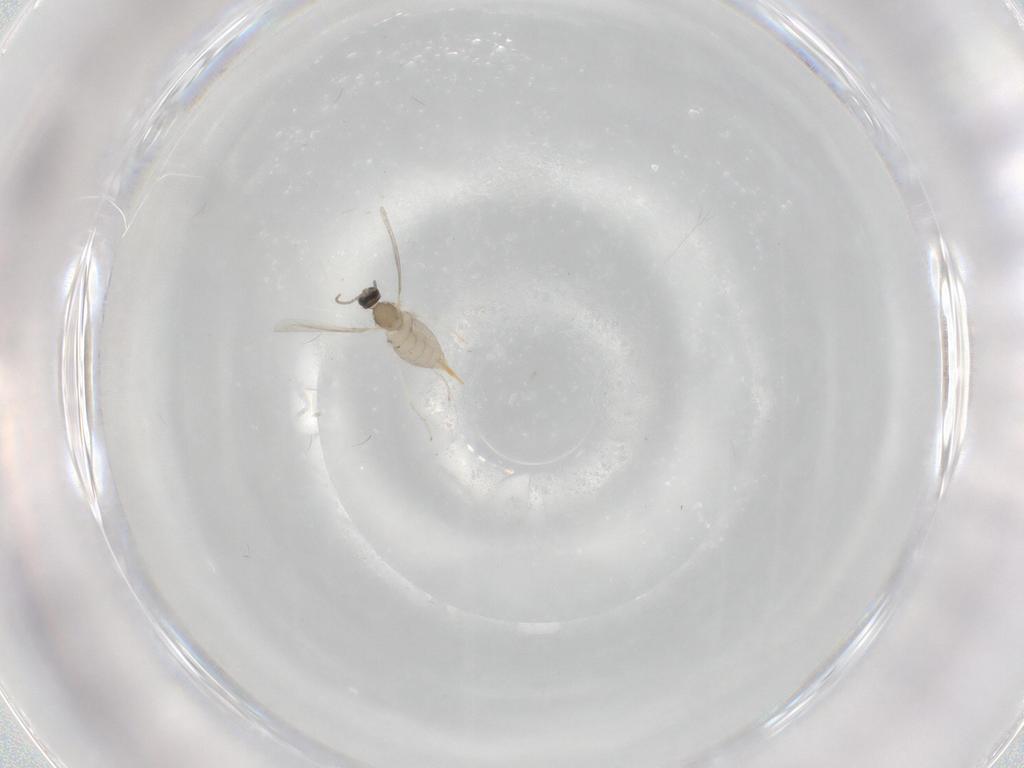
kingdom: Animalia
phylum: Arthropoda
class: Insecta
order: Diptera
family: Cecidomyiidae
